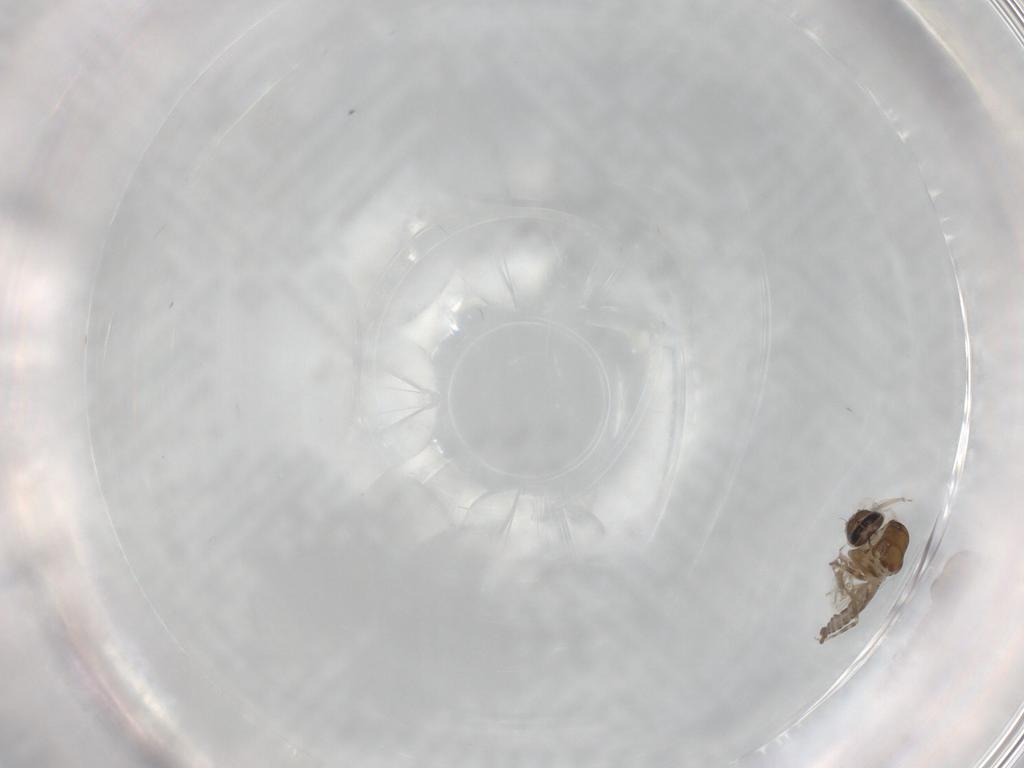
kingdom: Animalia
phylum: Arthropoda
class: Insecta
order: Diptera
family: Ceratopogonidae
